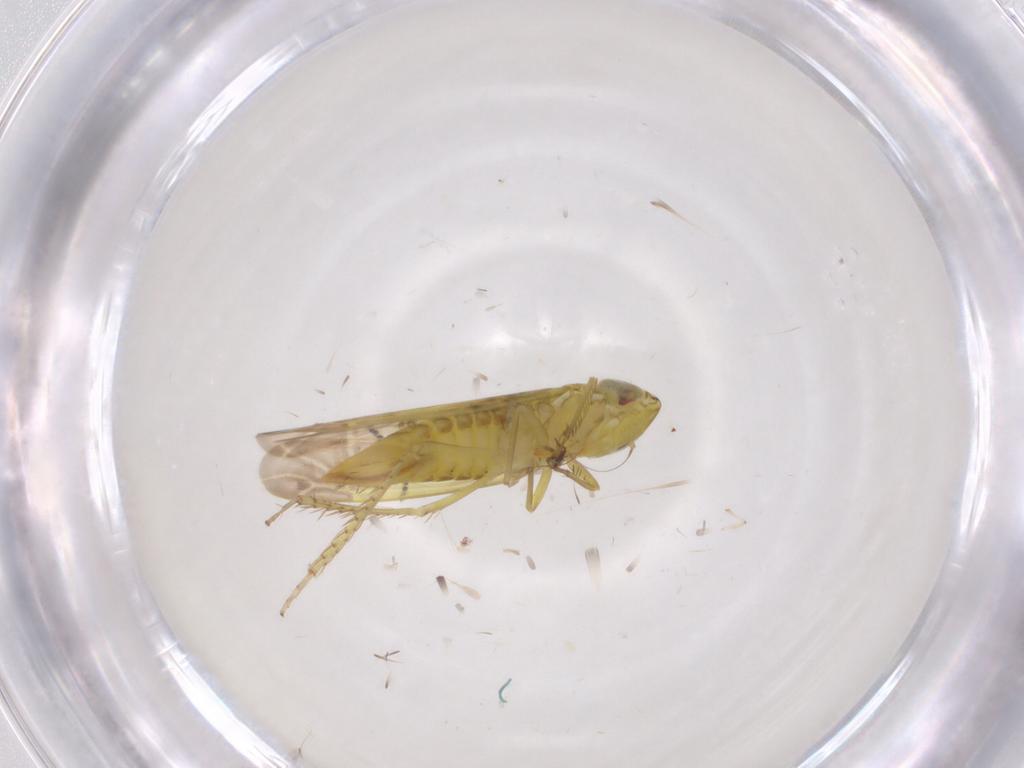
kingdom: Animalia
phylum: Arthropoda
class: Insecta
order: Hemiptera
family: Cicadellidae
